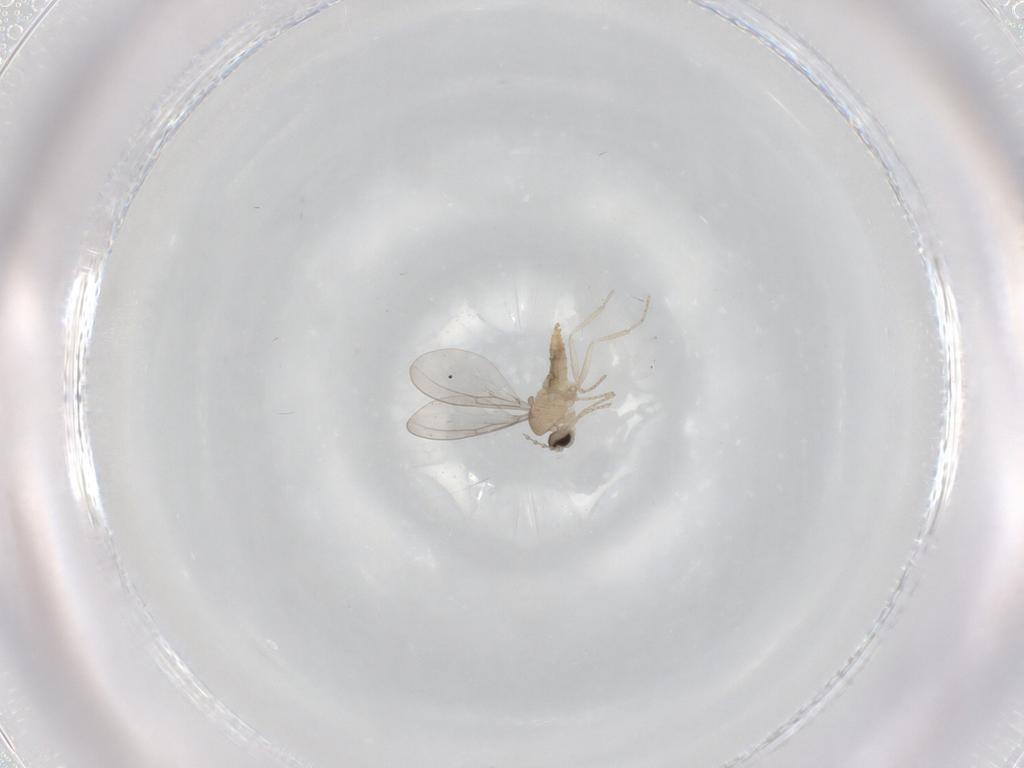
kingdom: Animalia
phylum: Arthropoda
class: Insecta
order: Diptera
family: Cecidomyiidae
